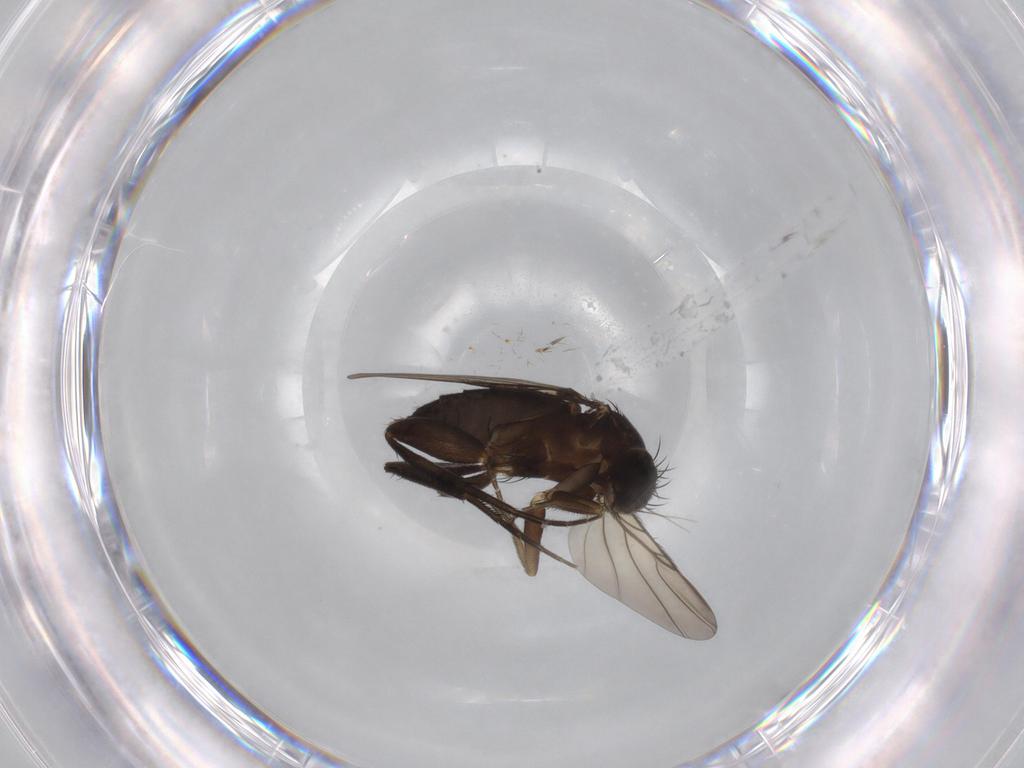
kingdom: Animalia
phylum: Arthropoda
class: Insecta
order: Diptera
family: Phoridae
